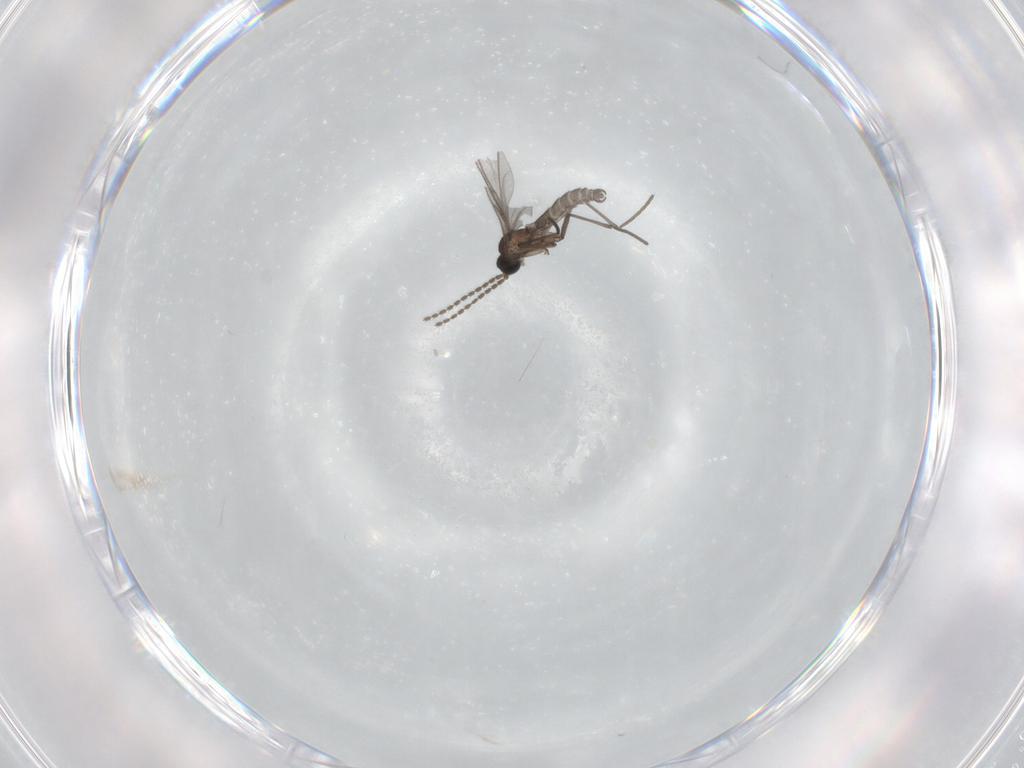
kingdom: Animalia
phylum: Arthropoda
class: Insecta
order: Diptera
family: Sciaridae
